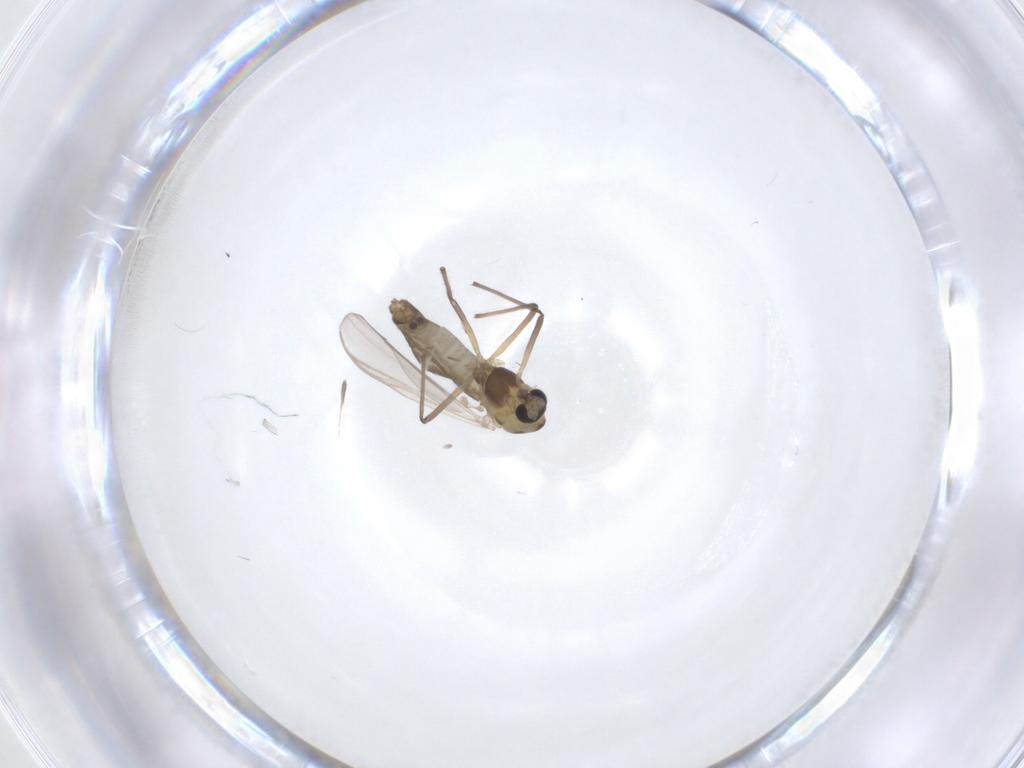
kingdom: Animalia
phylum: Arthropoda
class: Insecta
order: Diptera
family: Chironomidae
